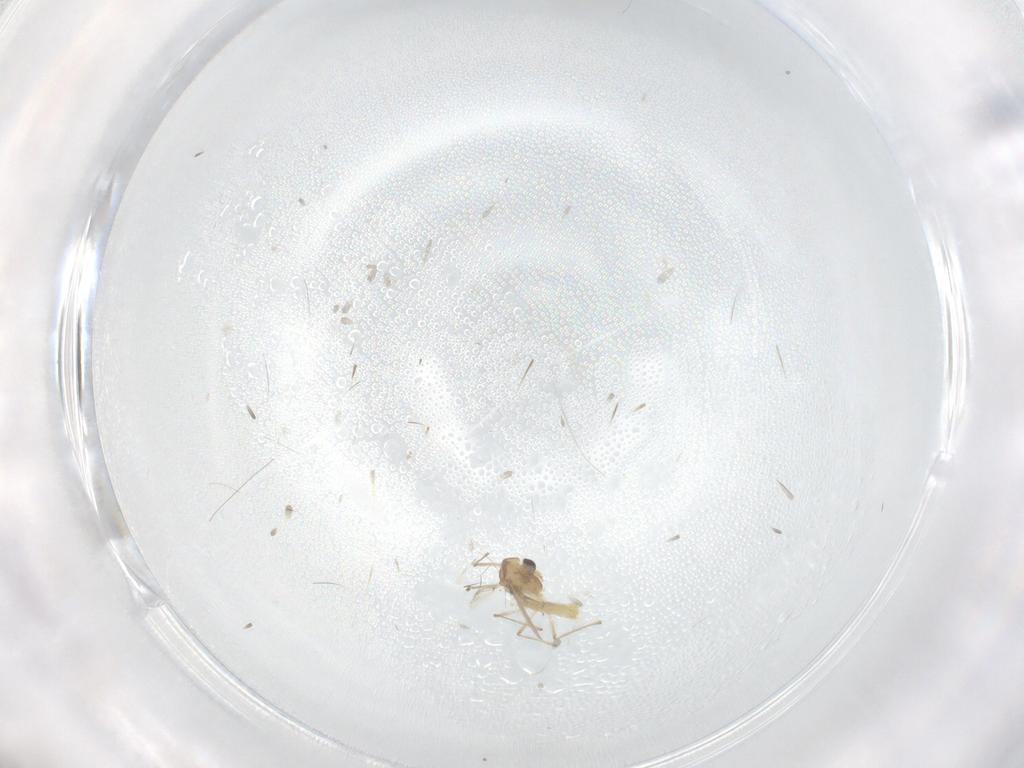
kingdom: Animalia
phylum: Arthropoda
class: Insecta
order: Diptera
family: Chironomidae
